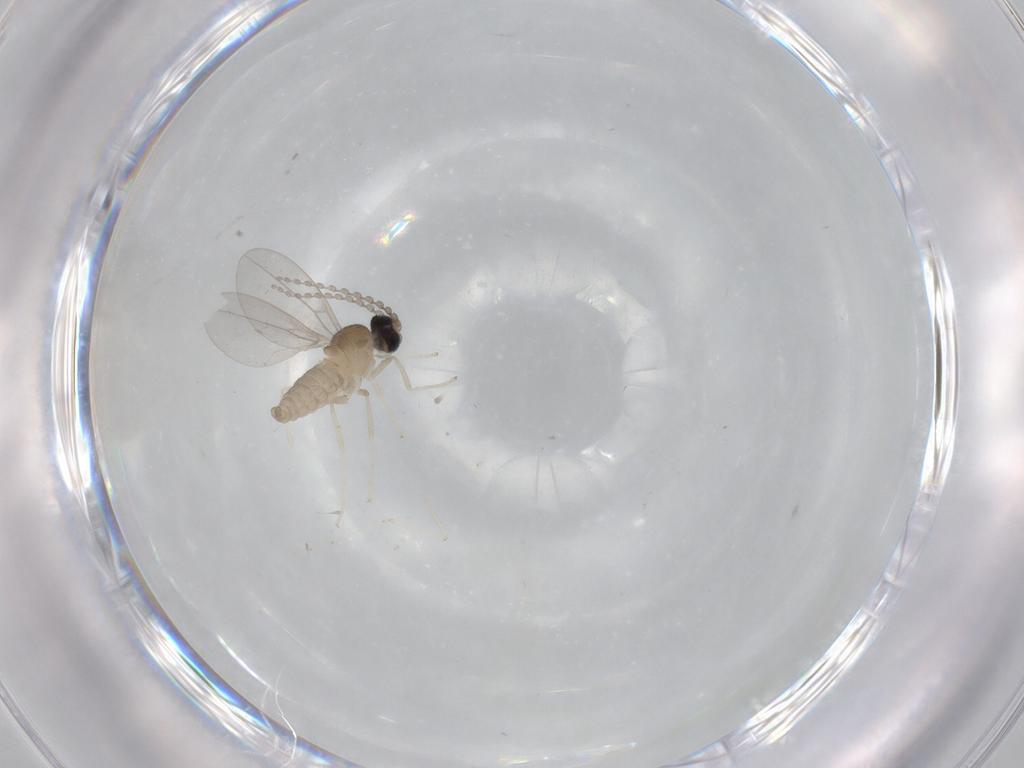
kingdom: Animalia
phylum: Arthropoda
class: Insecta
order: Diptera
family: Cecidomyiidae
